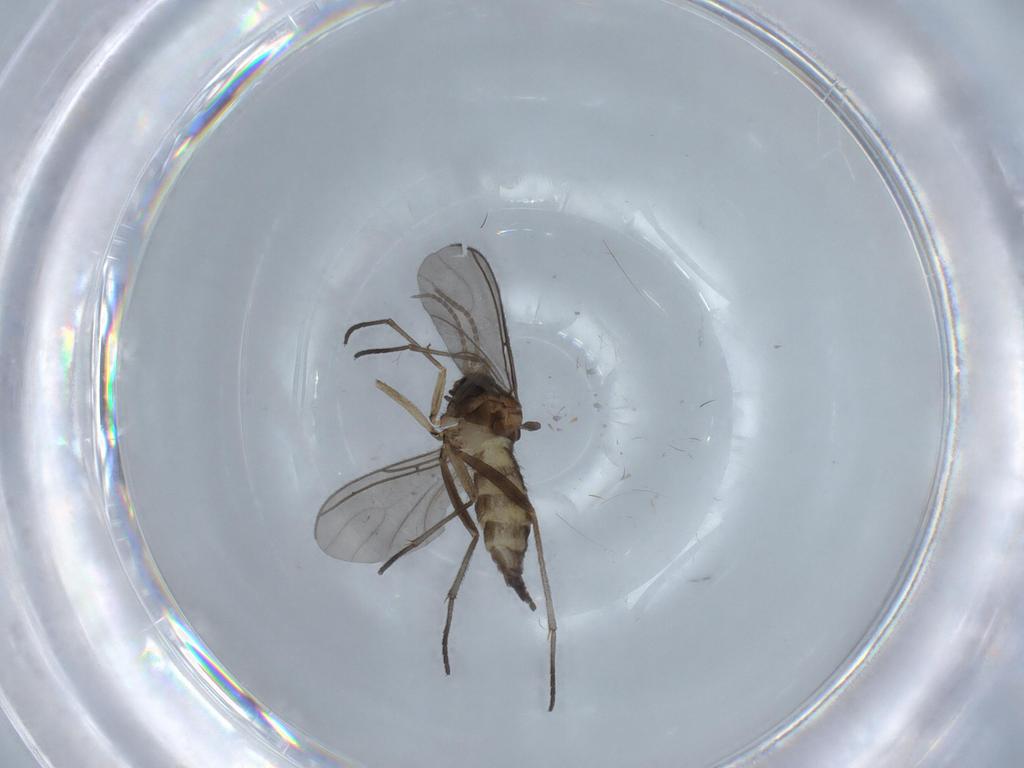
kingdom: Animalia
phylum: Arthropoda
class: Insecta
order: Diptera
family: Sciaridae
